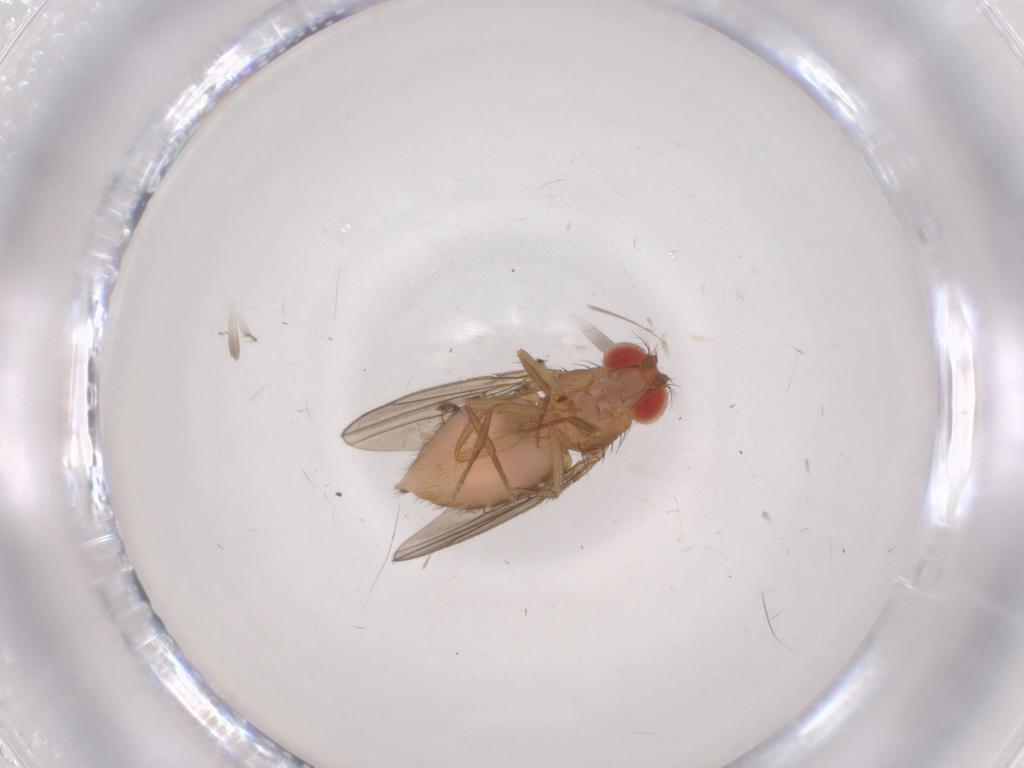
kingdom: Animalia
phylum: Arthropoda
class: Insecta
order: Diptera
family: Drosophilidae
